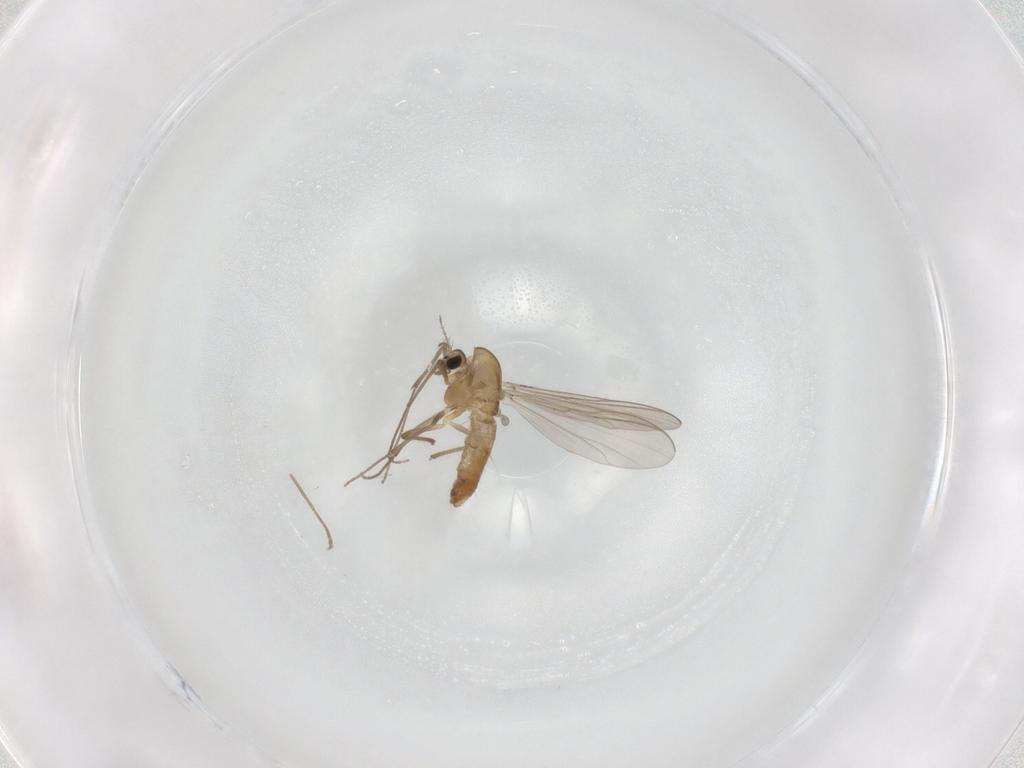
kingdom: Animalia
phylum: Arthropoda
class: Insecta
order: Diptera
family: Chironomidae
